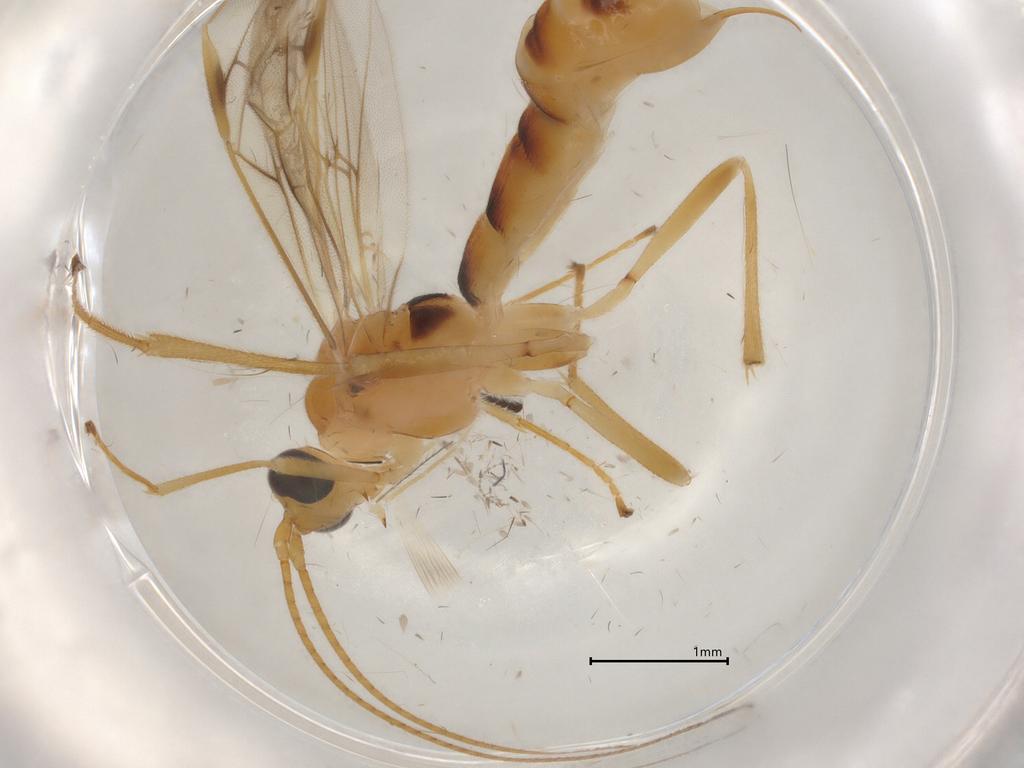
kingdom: Animalia
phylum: Arthropoda
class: Insecta
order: Hymenoptera
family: Braconidae
